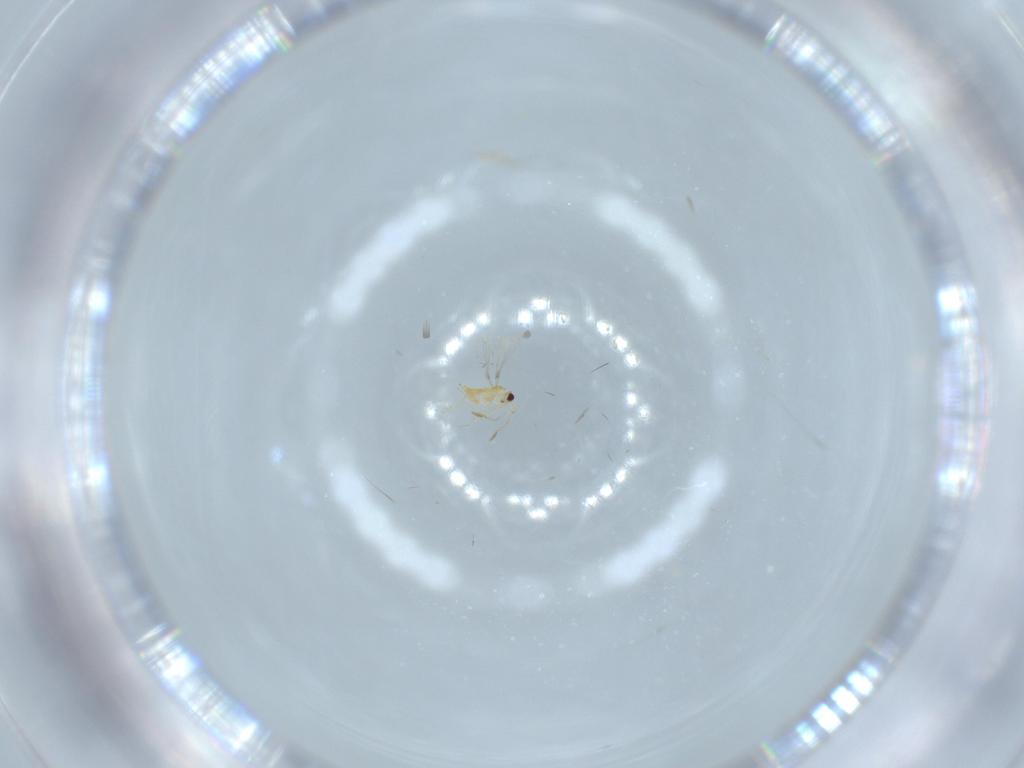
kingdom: Animalia
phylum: Arthropoda
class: Insecta
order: Hymenoptera
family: Mymaridae
